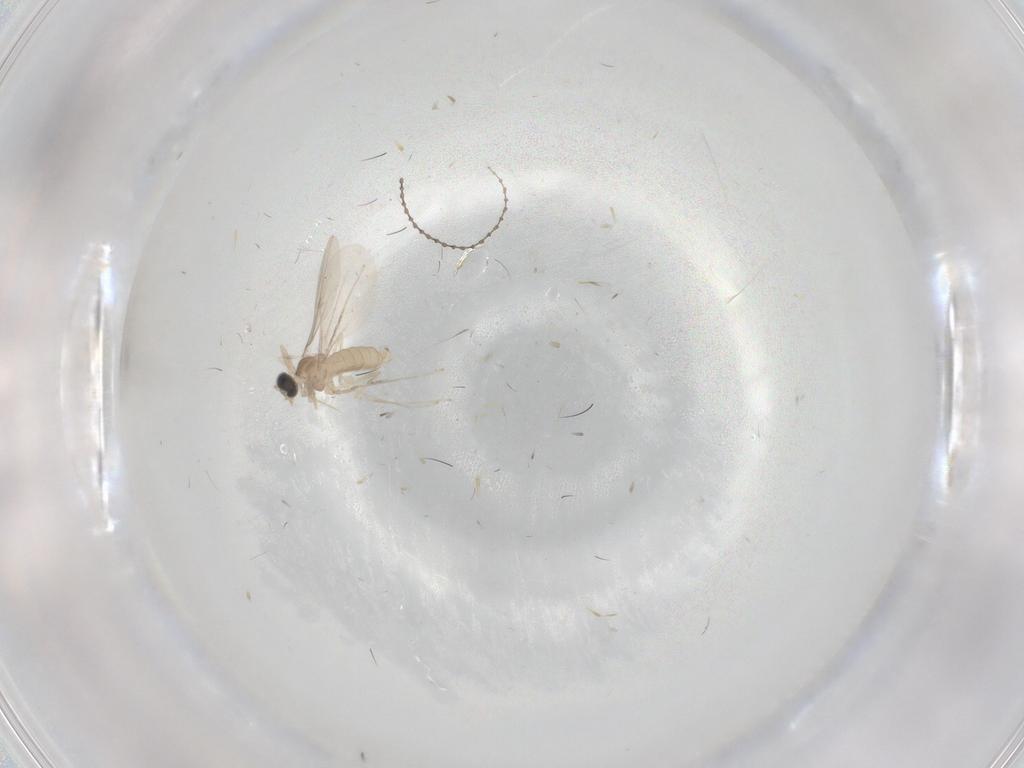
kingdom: Animalia
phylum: Arthropoda
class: Insecta
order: Diptera
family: Cecidomyiidae
